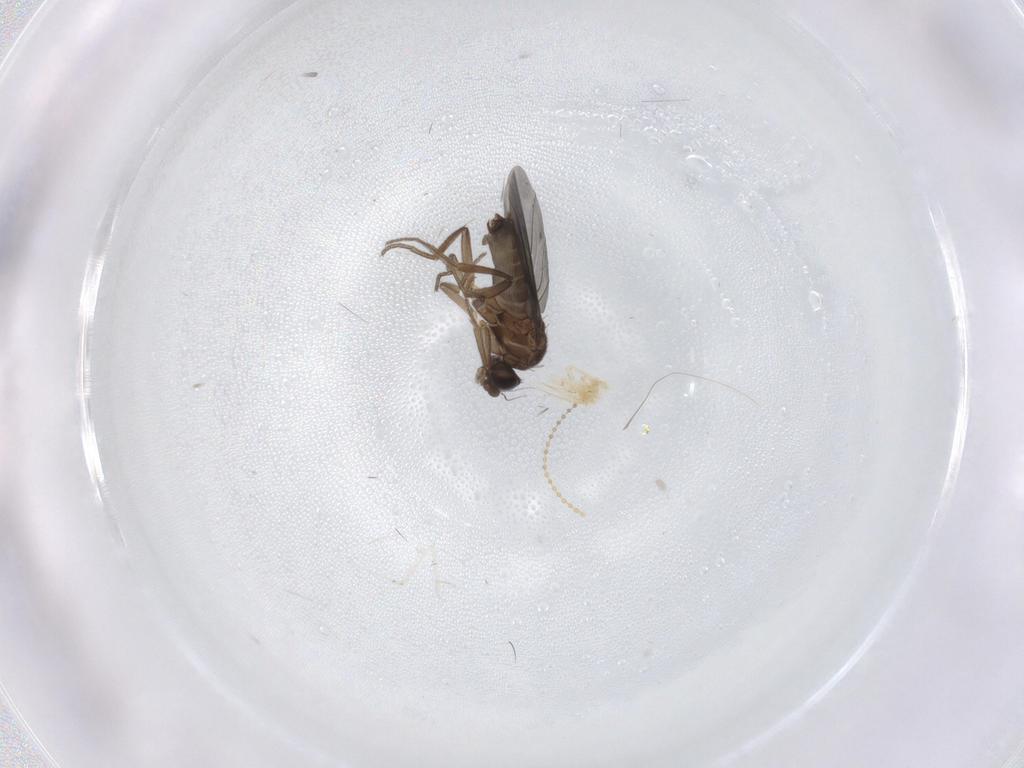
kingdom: Animalia
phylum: Arthropoda
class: Insecta
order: Diptera
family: Phoridae
